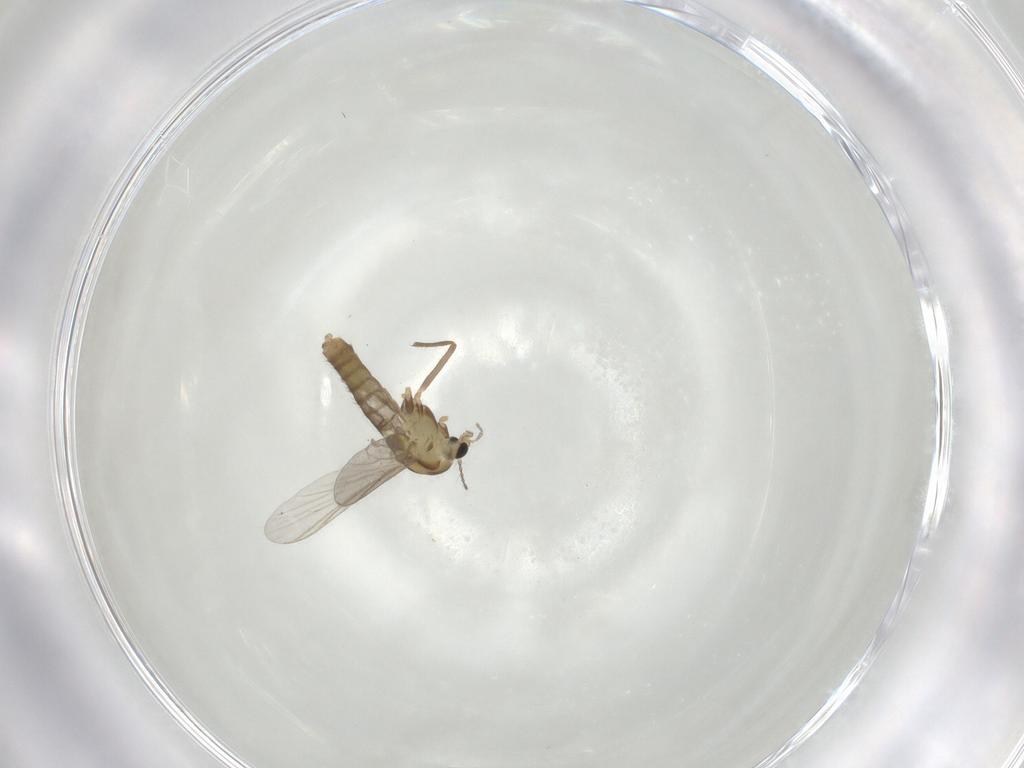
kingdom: Animalia
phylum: Arthropoda
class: Insecta
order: Diptera
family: Chironomidae
